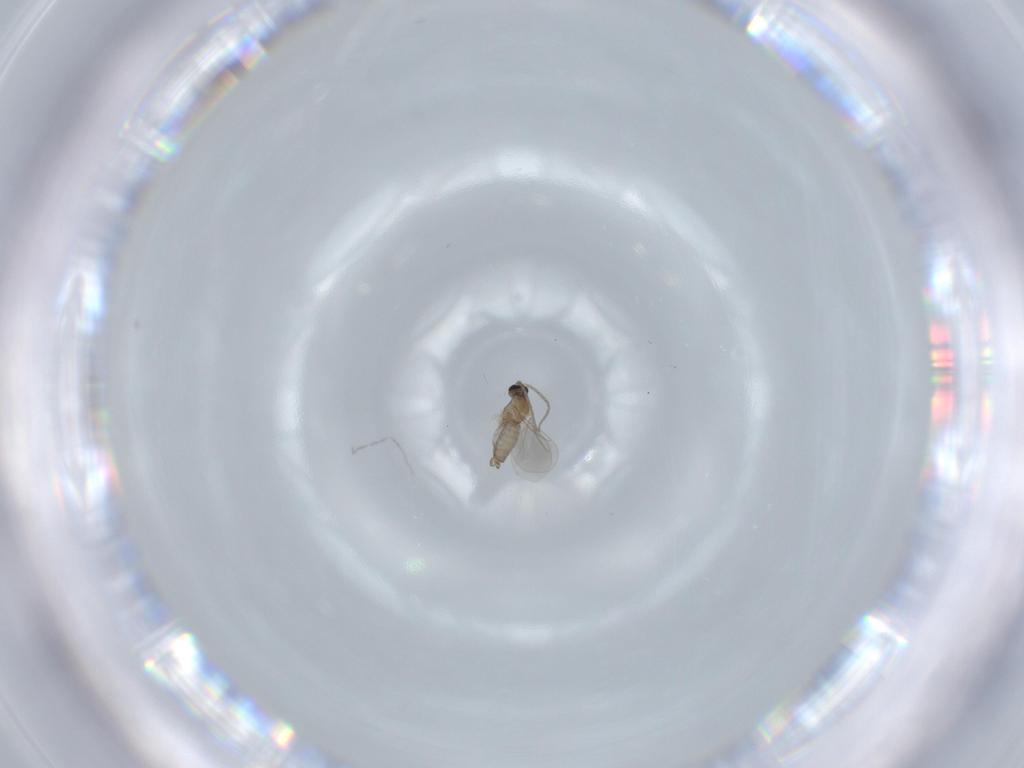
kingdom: Animalia
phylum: Arthropoda
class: Insecta
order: Diptera
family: Cecidomyiidae
